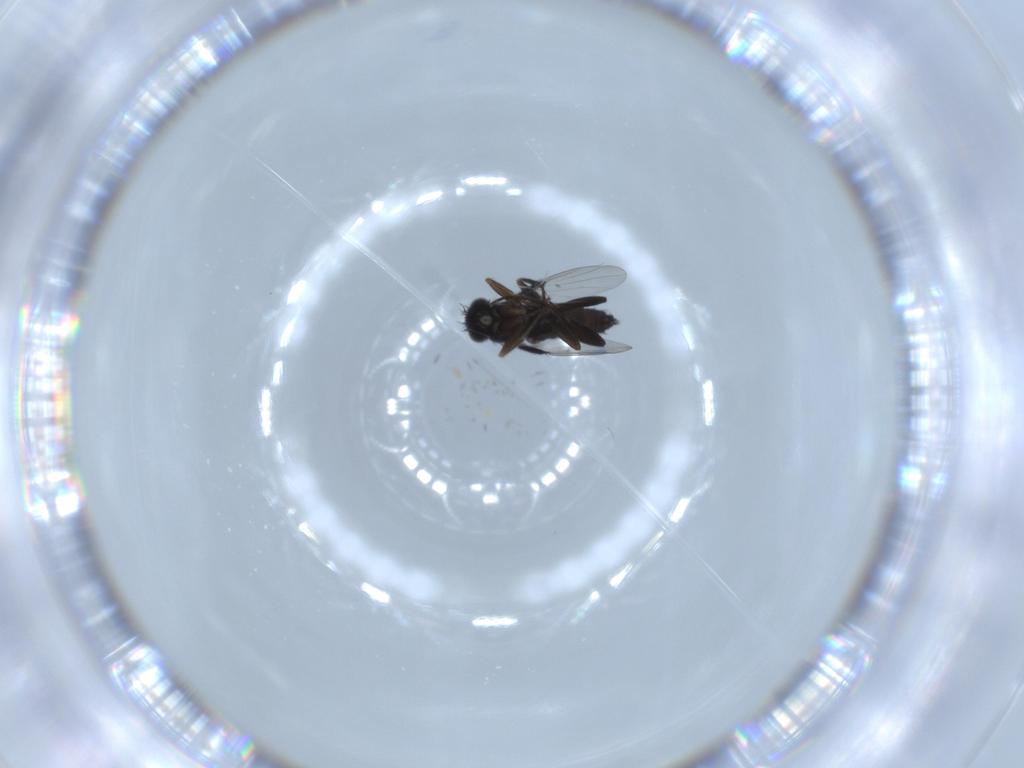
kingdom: Animalia
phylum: Arthropoda
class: Insecta
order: Diptera
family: Phoridae
